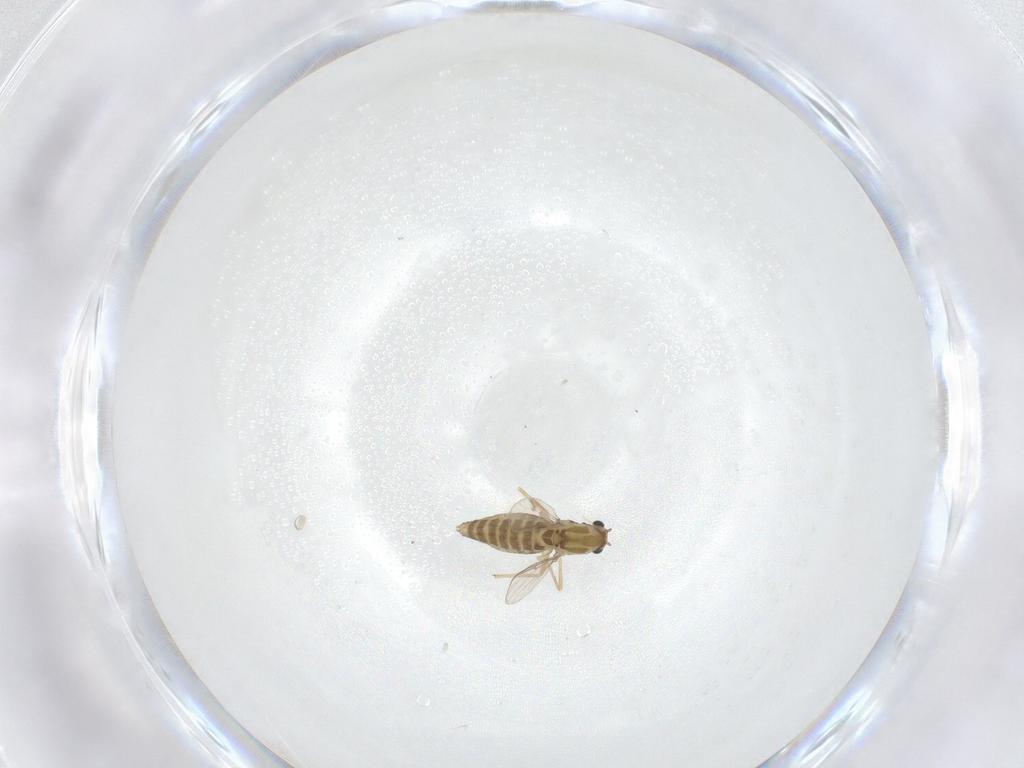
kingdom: Animalia
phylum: Arthropoda
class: Insecta
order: Diptera
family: Chironomidae
